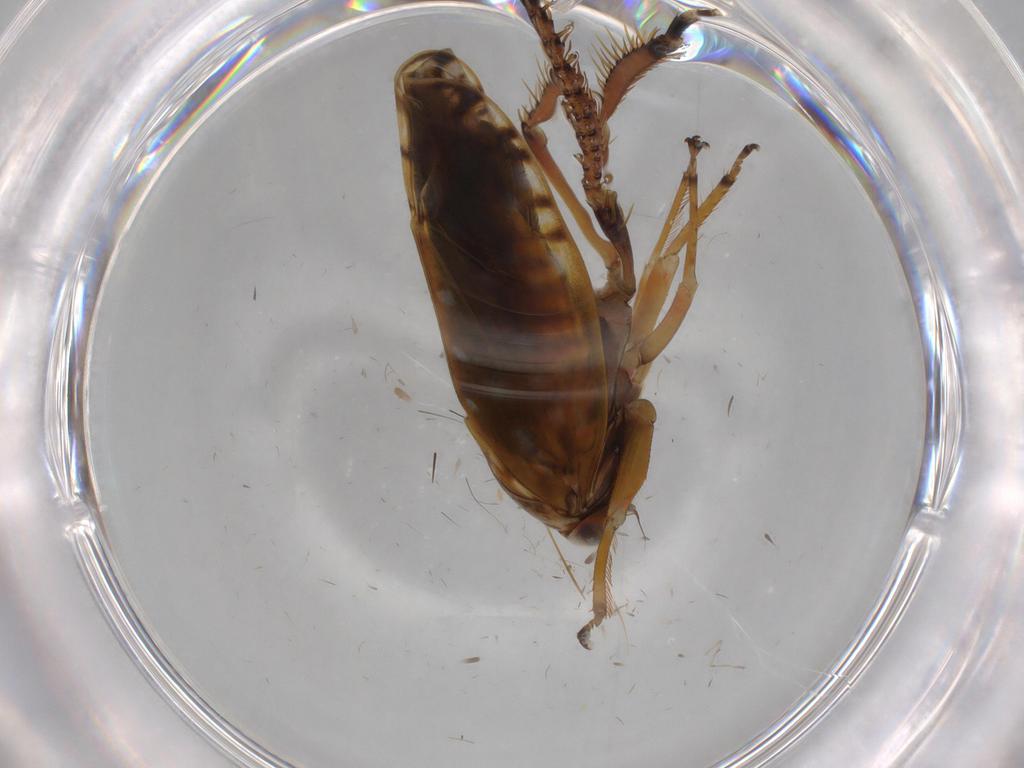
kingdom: Animalia
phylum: Arthropoda
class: Insecta
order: Hemiptera
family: Cicadellidae
